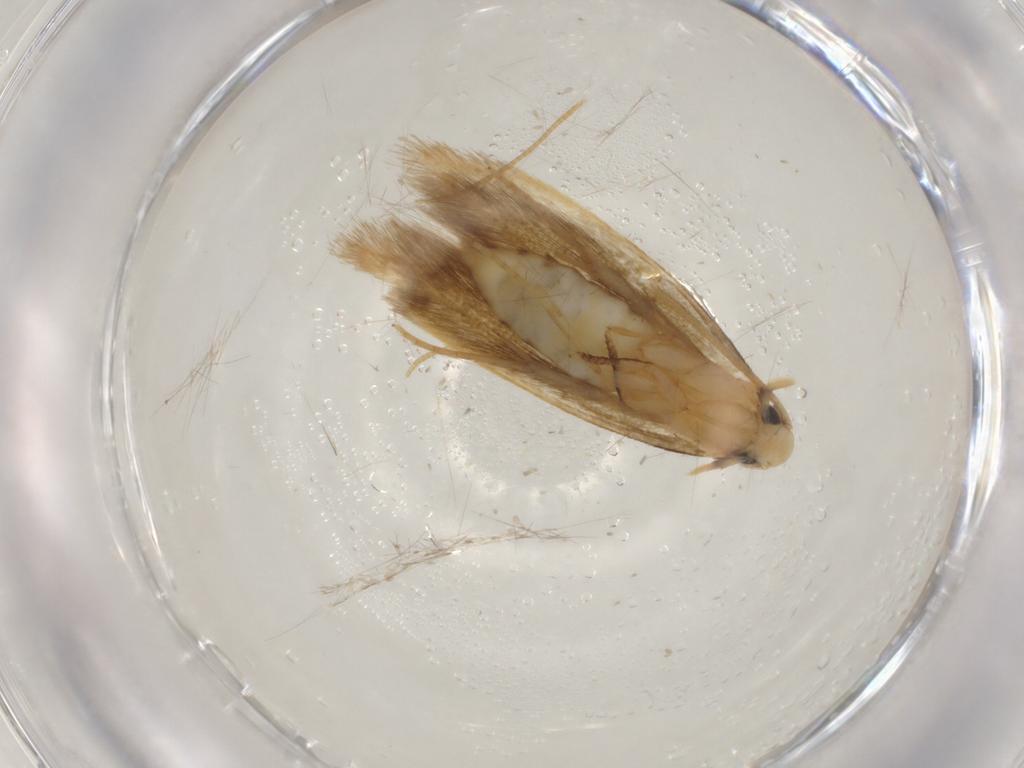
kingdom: Animalia
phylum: Arthropoda
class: Insecta
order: Lepidoptera
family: Tineidae
